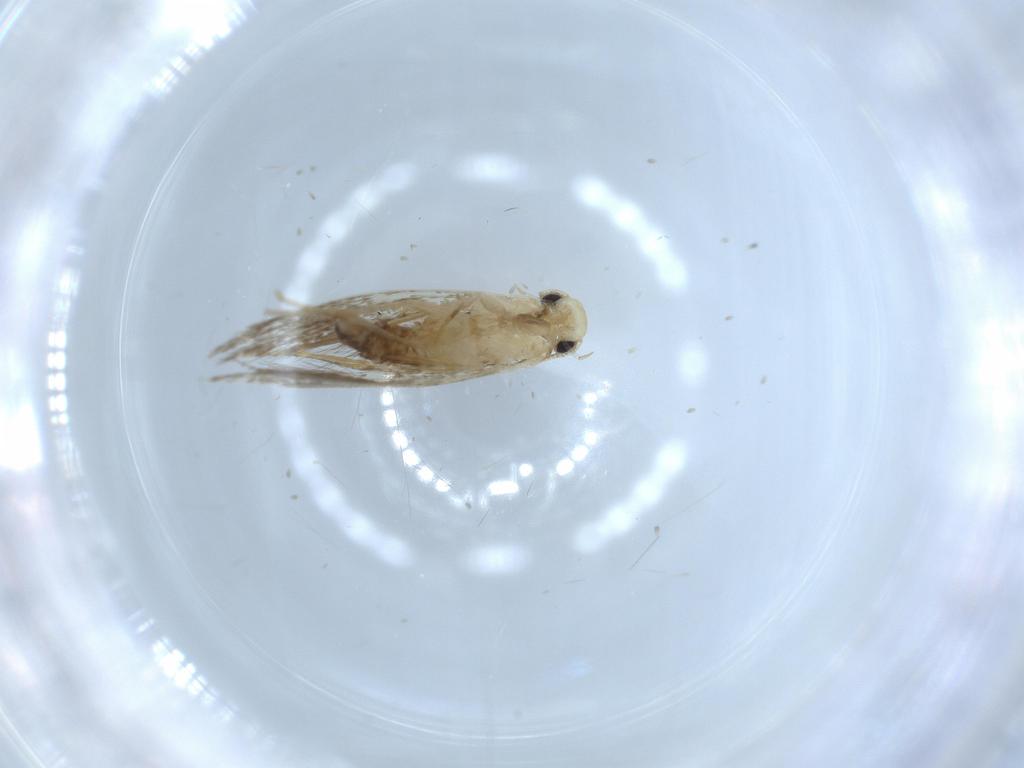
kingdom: Animalia
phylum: Arthropoda
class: Insecta
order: Lepidoptera
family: Tineidae
